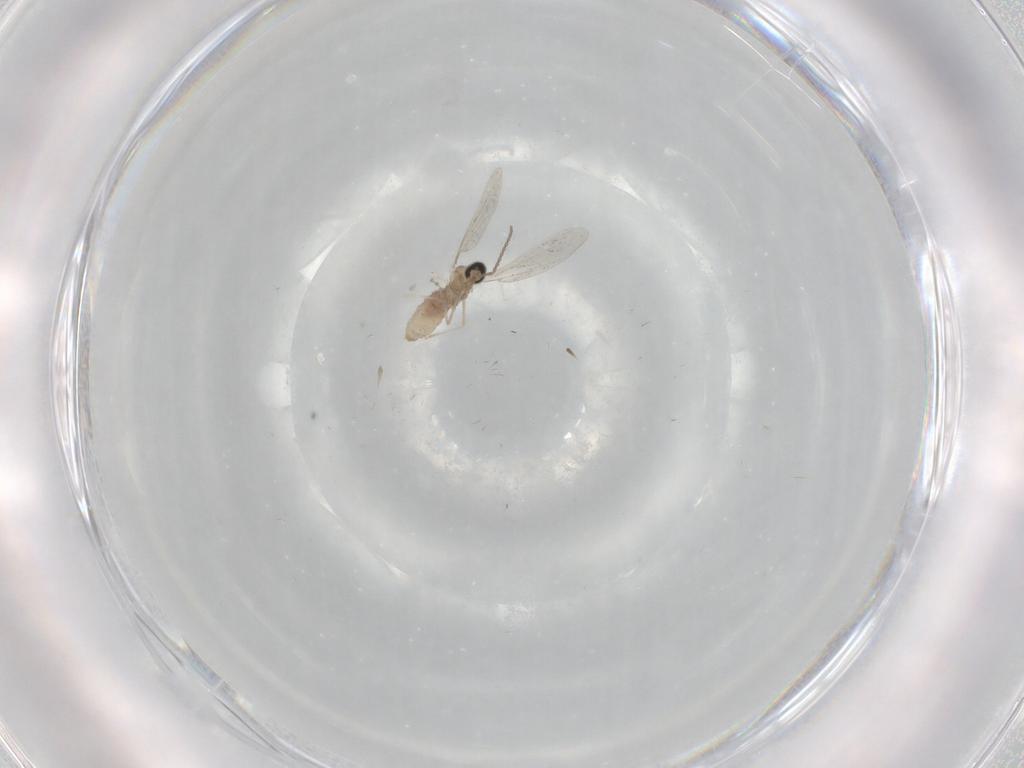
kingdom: Animalia
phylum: Arthropoda
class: Insecta
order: Diptera
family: Cecidomyiidae
